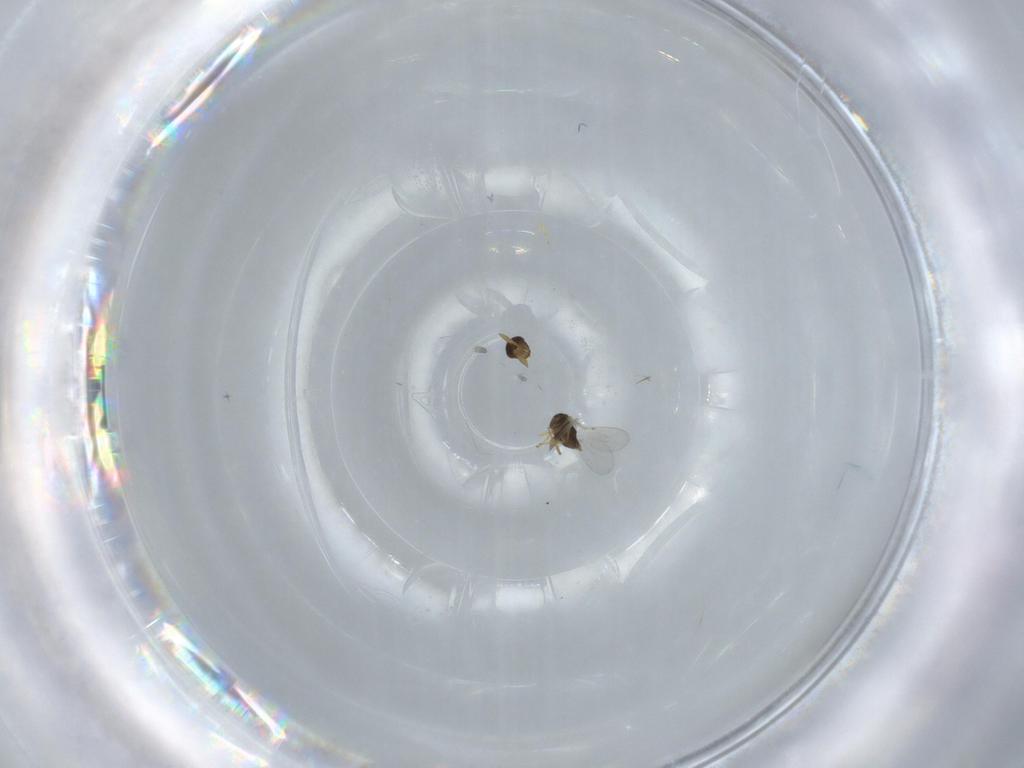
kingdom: Animalia
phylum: Arthropoda
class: Insecta
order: Hymenoptera
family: Encyrtidae
